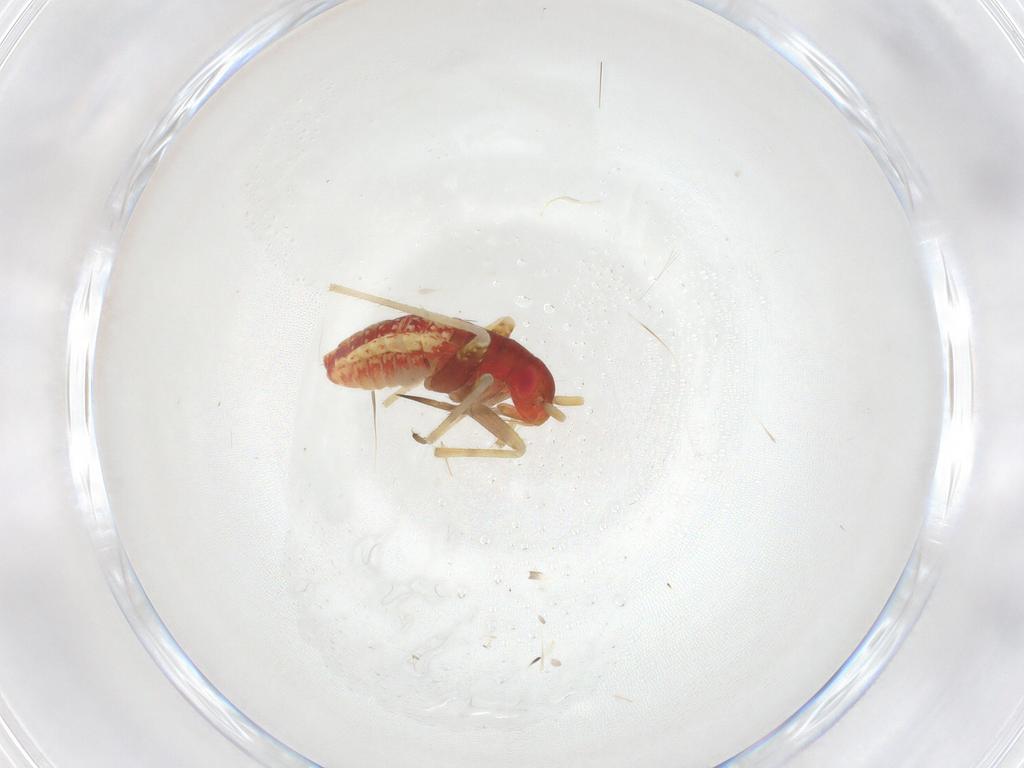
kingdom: Animalia
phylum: Arthropoda
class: Insecta
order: Hemiptera
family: Miridae
